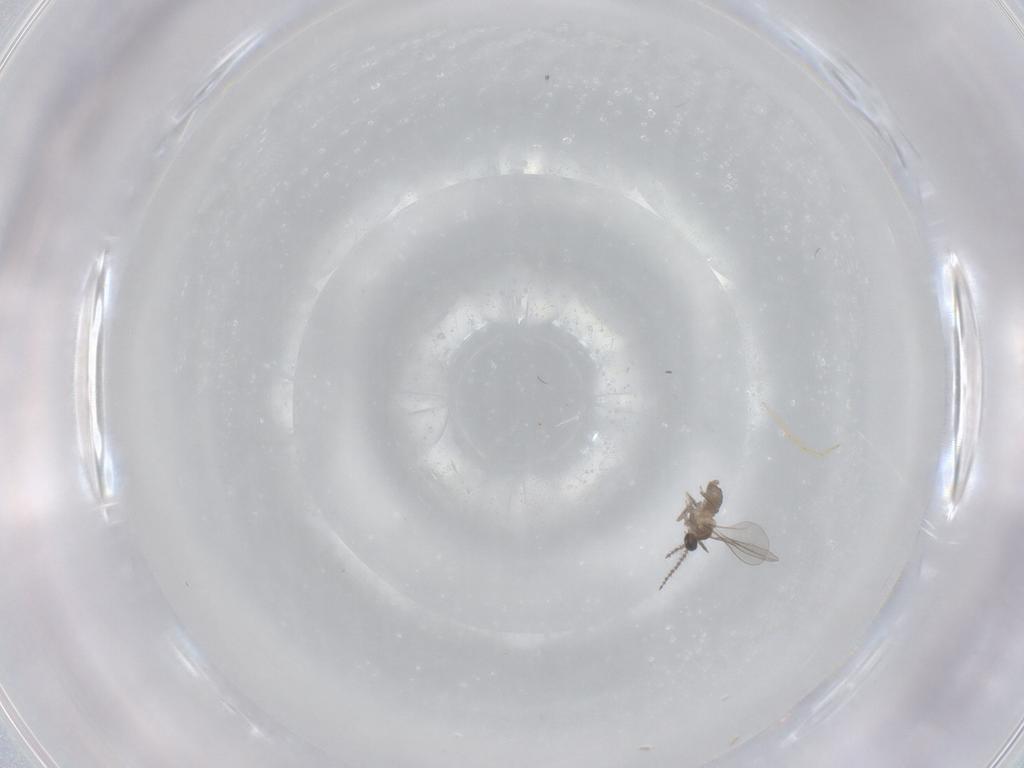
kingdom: Animalia
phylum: Arthropoda
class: Insecta
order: Diptera
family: Cecidomyiidae
